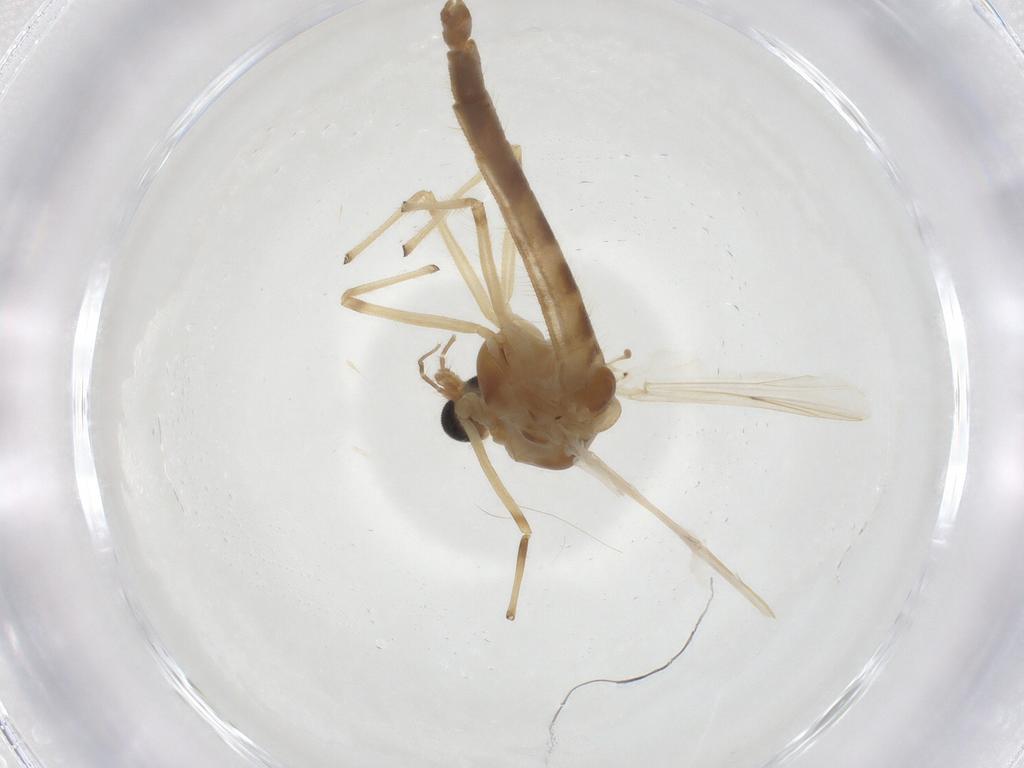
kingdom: Animalia
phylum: Arthropoda
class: Insecta
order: Diptera
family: Chironomidae
